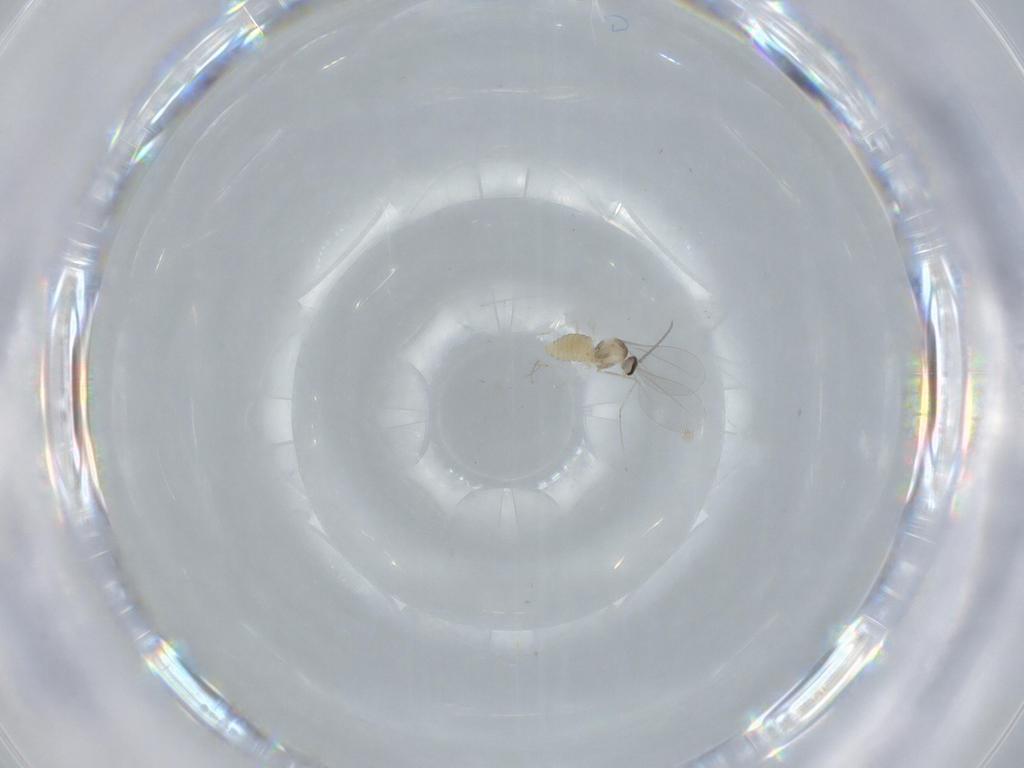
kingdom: Animalia
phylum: Arthropoda
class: Insecta
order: Diptera
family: Cecidomyiidae
